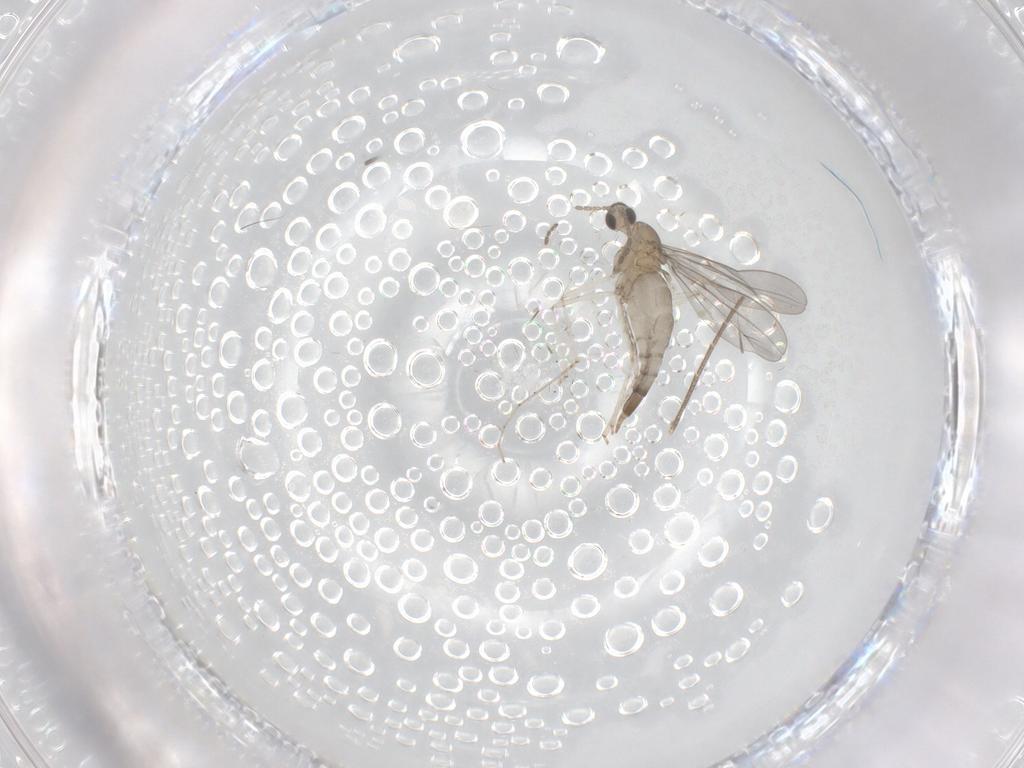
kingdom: Animalia
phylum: Arthropoda
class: Insecta
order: Diptera
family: Cecidomyiidae
